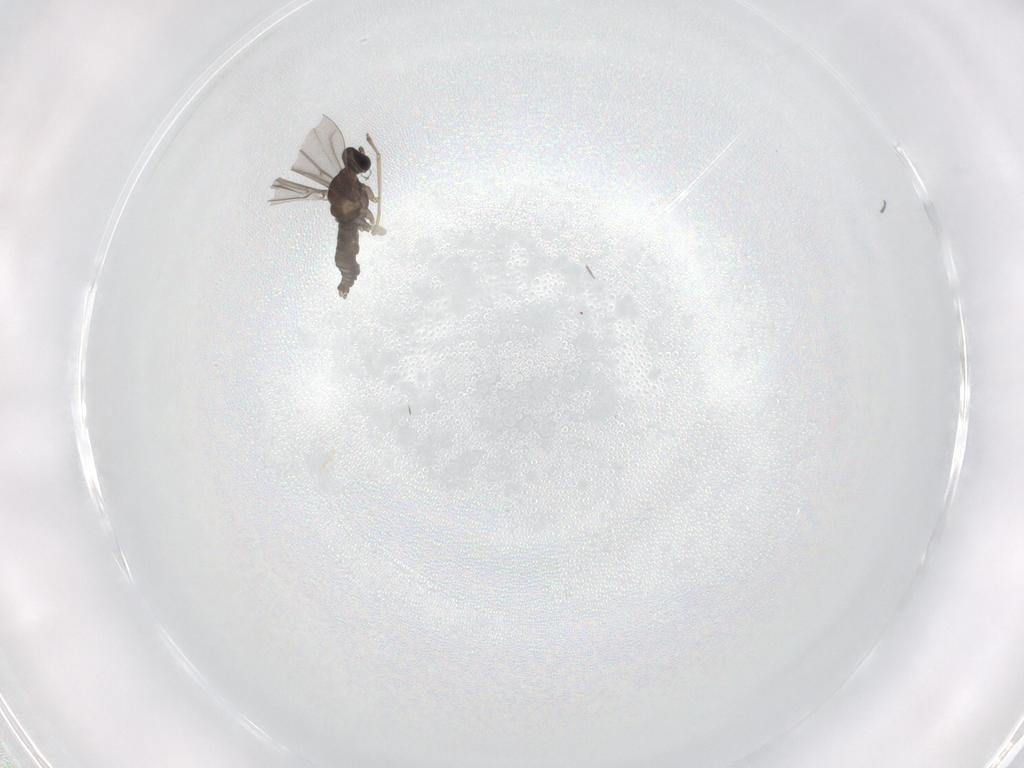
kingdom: Animalia
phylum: Arthropoda
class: Insecta
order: Diptera
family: Cecidomyiidae
